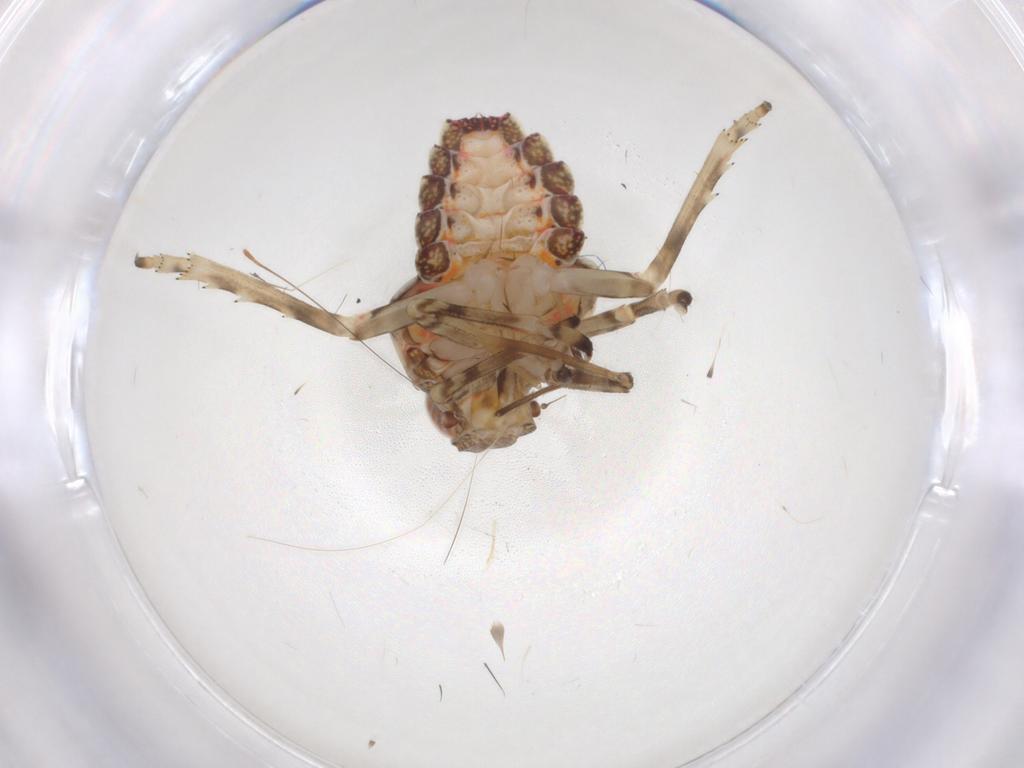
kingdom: Animalia
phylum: Arthropoda
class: Insecta
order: Hemiptera
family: Tropiduchidae
